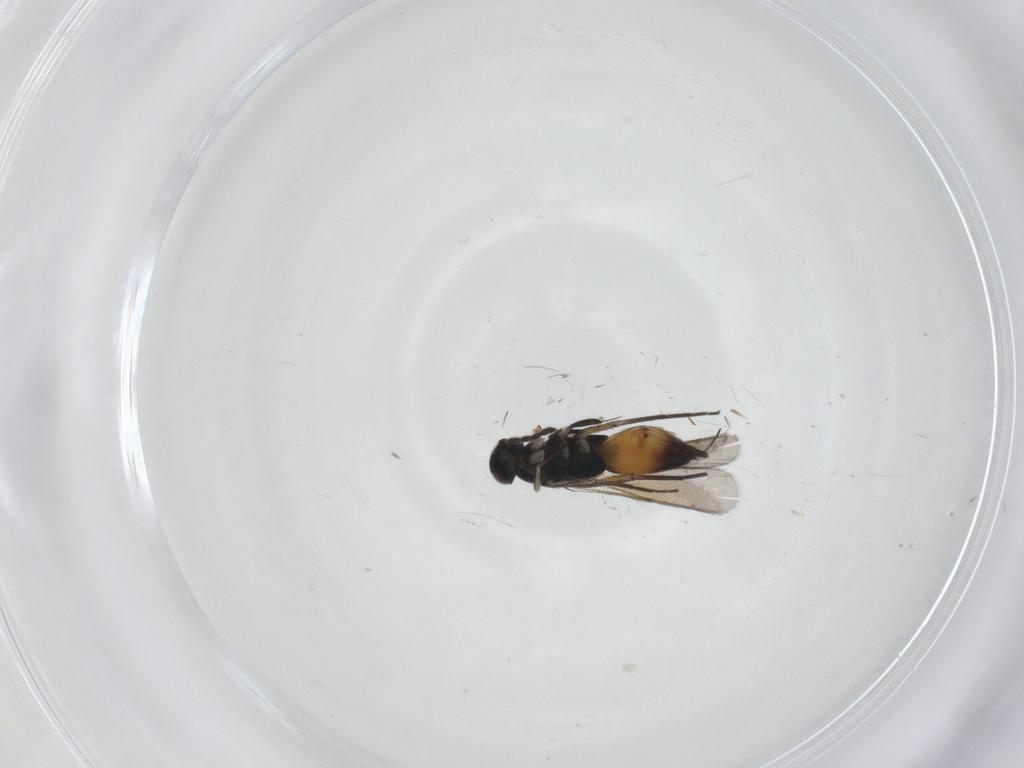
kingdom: Animalia
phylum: Arthropoda
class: Insecta
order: Hymenoptera
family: Eulophidae
